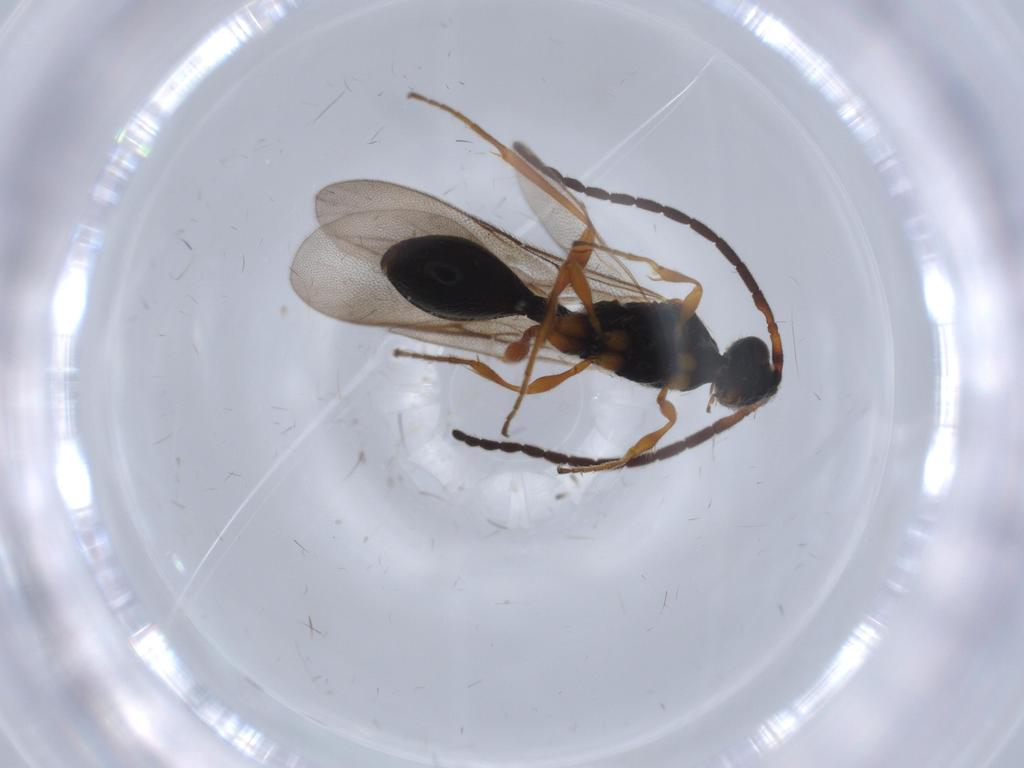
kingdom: Animalia
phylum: Arthropoda
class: Insecta
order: Hymenoptera
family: Diapriidae
